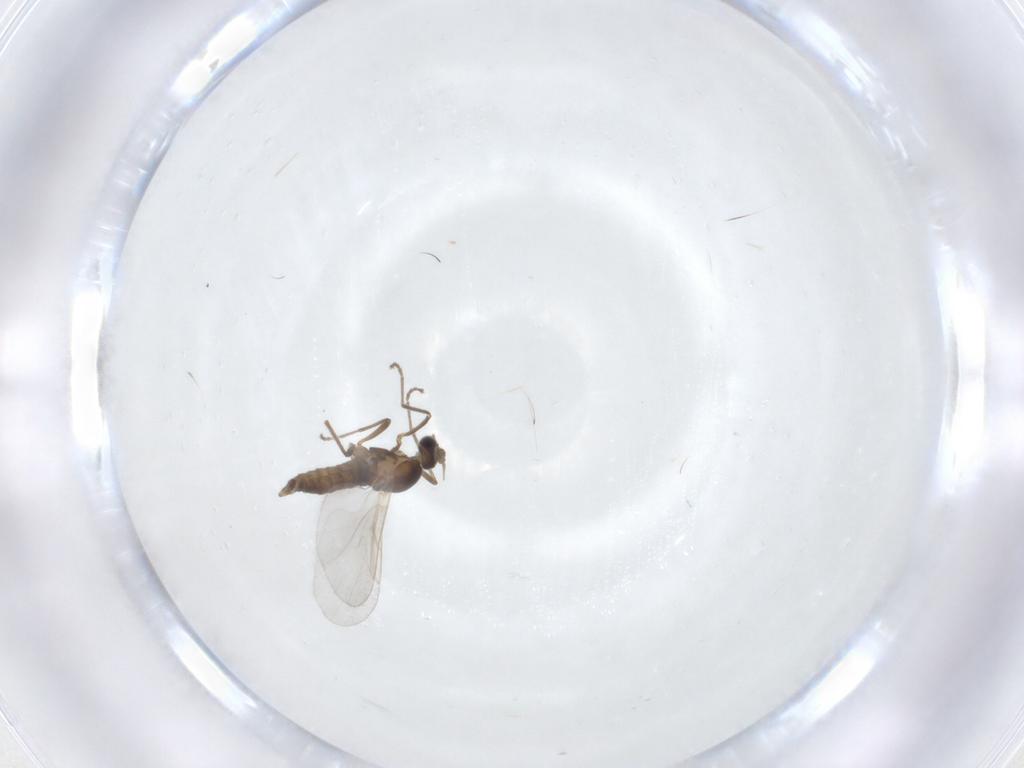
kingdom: Animalia
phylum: Arthropoda
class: Insecta
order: Diptera
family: Cecidomyiidae
